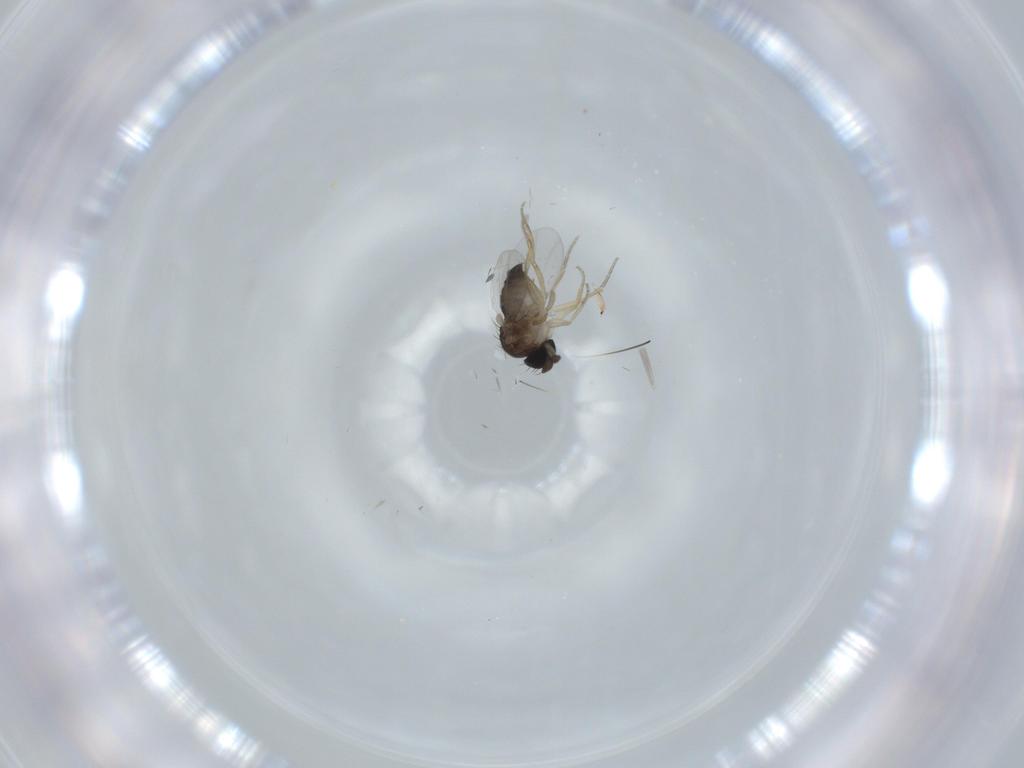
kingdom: Animalia
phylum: Arthropoda
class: Insecta
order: Diptera
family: Phoridae
